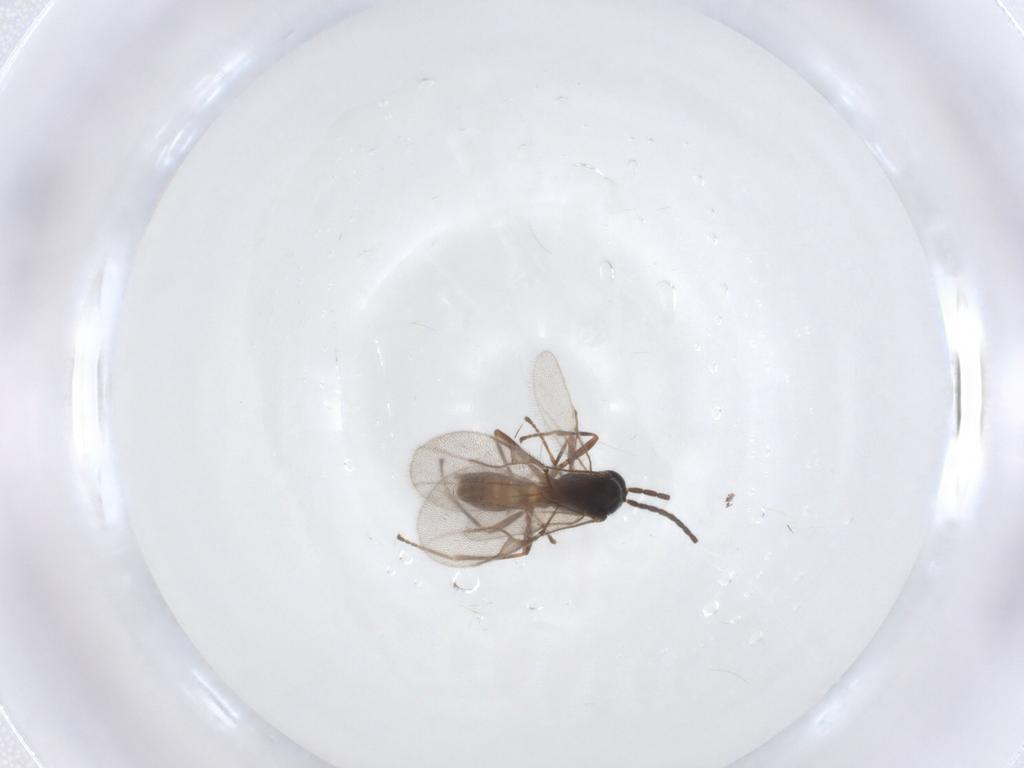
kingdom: Animalia
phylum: Arthropoda
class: Insecta
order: Hymenoptera
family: Braconidae
